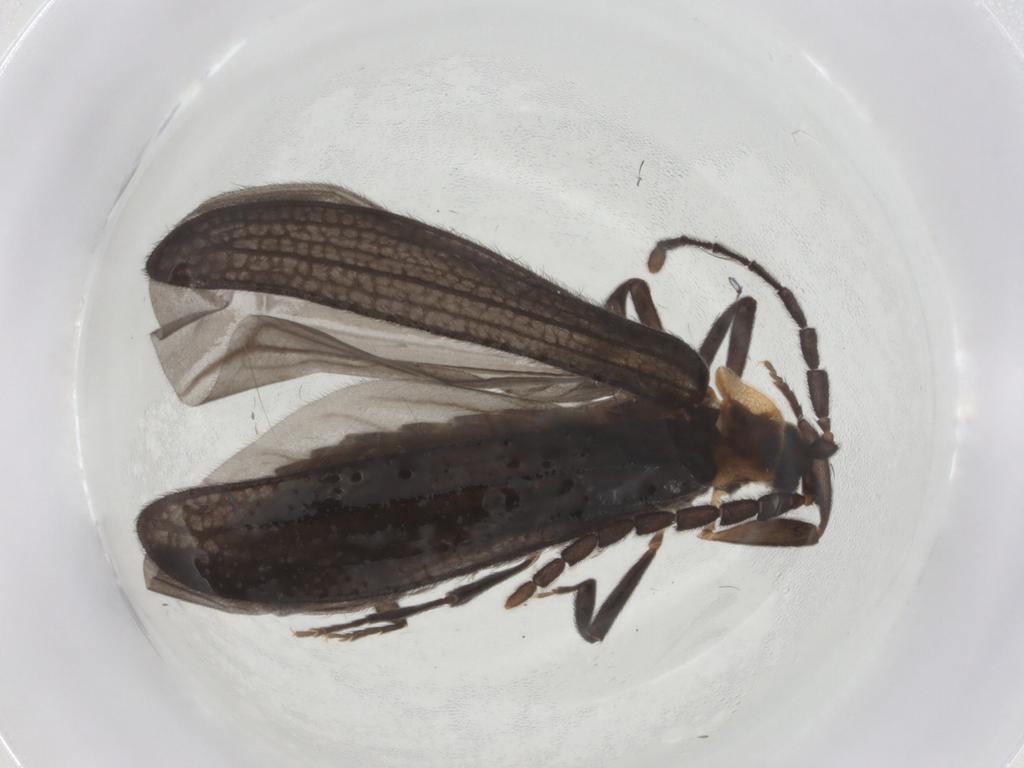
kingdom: Animalia
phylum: Arthropoda
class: Insecta
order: Coleoptera
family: Lycidae
